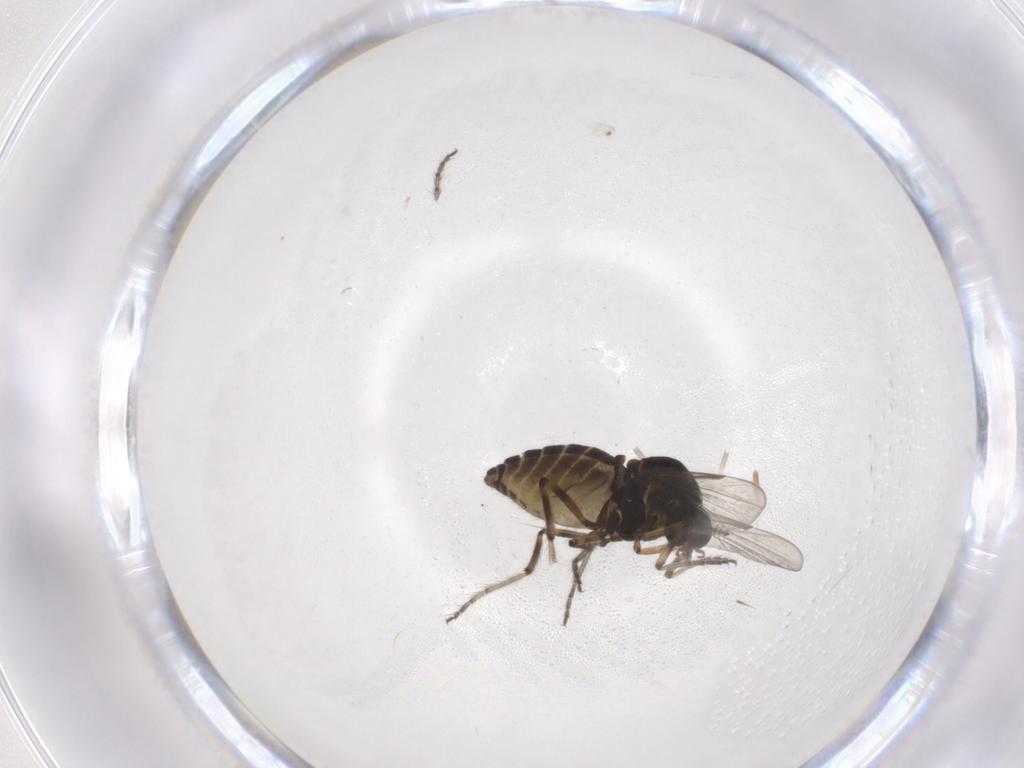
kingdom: Animalia
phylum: Arthropoda
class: Insecta
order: Diptera
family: Ceratopogonidae
